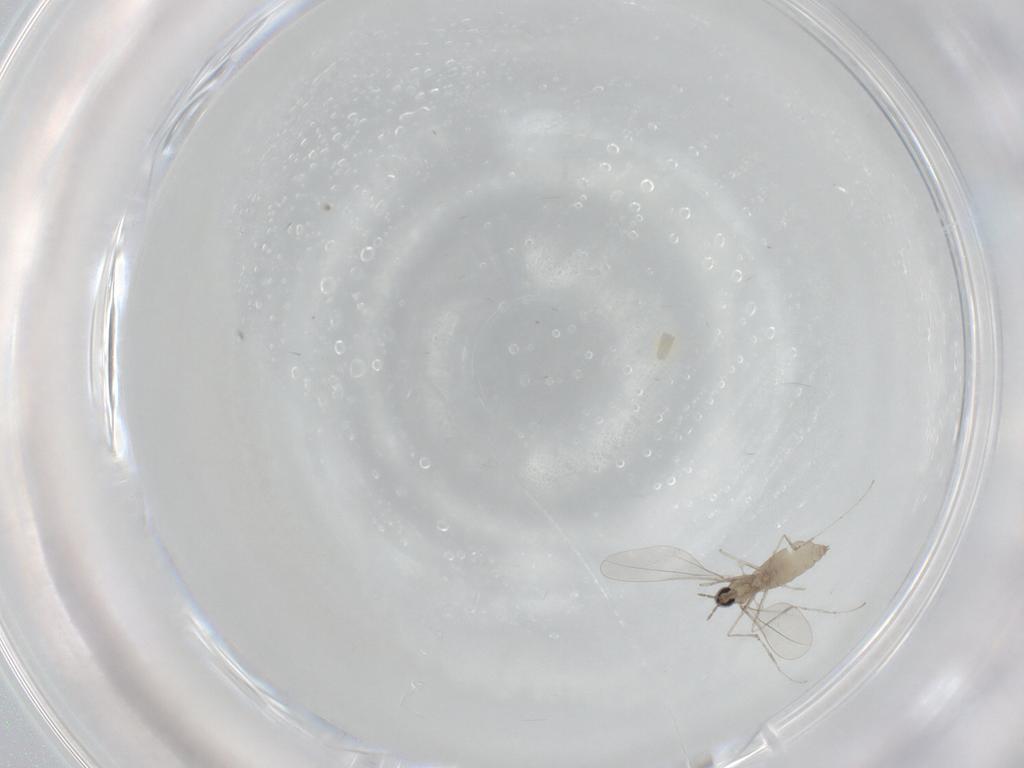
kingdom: Animalia
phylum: Arthropoda
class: Insecta
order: Diptera
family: Cecidomyiidae
